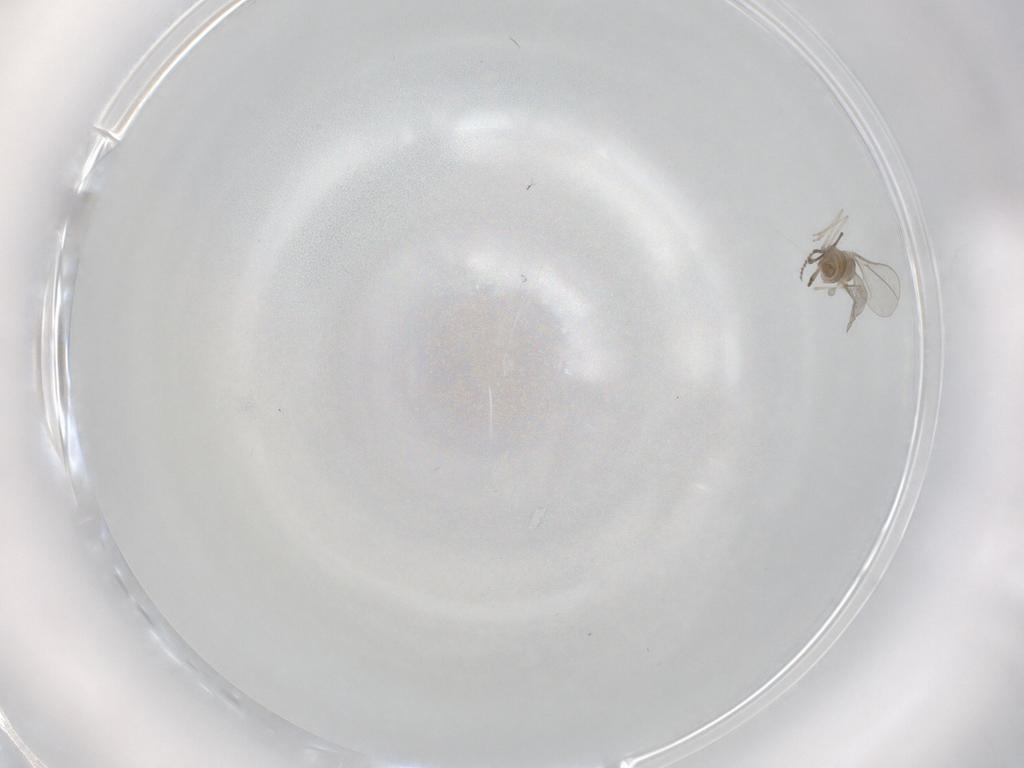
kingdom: Animalia
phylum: Arthropoda
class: Insecta
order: Diptera
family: Cecidomyiidae
